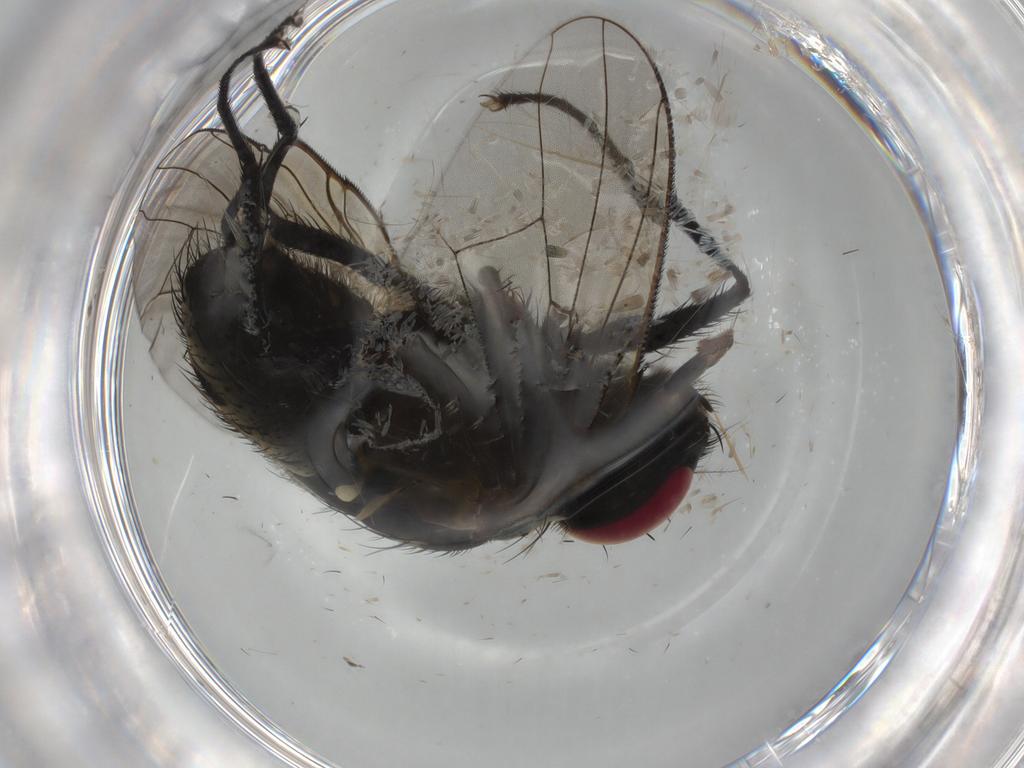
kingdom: Animalia
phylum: Arthropoda
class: Insecta
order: Diptera
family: Muscidae
